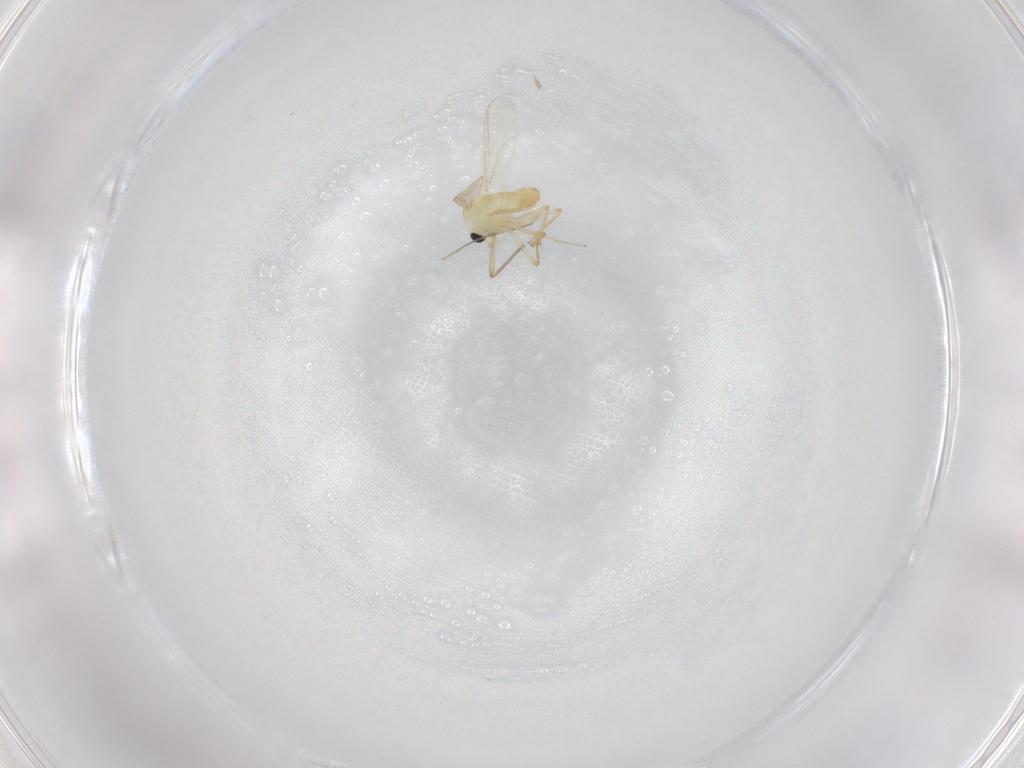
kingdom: Animalia
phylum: Arthropoda
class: Insecta
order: Diptera
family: Chironomidae
